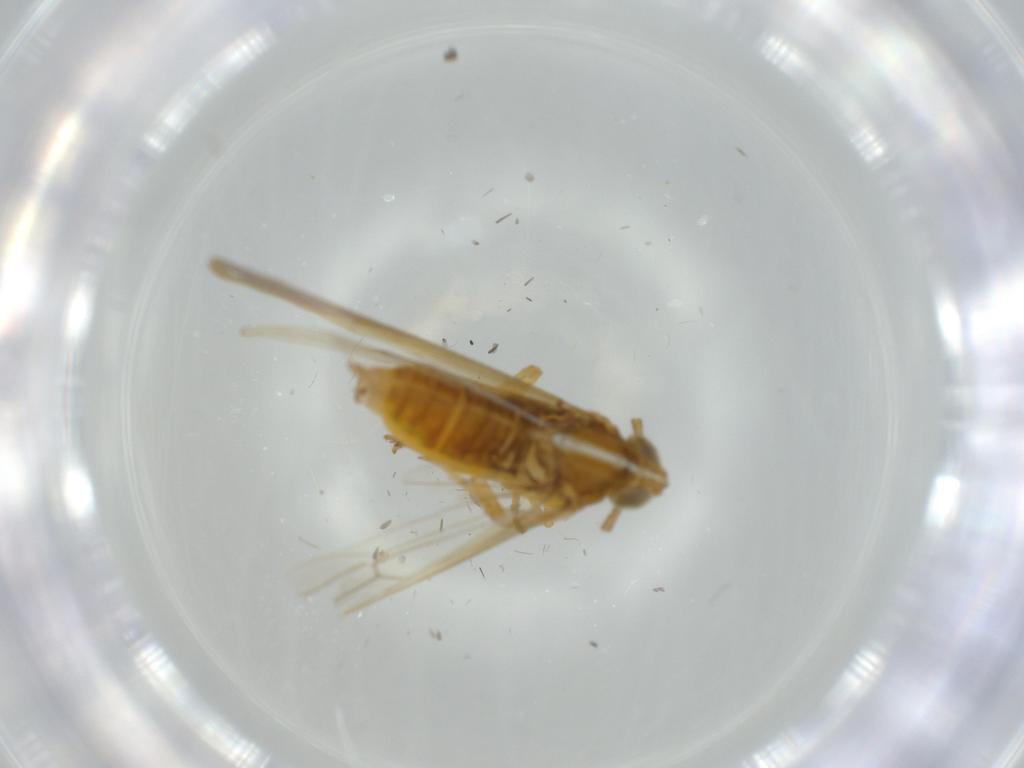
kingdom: Animalia
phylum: Arthropoda
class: Insecta
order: Hemiptera
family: Delphacidae
